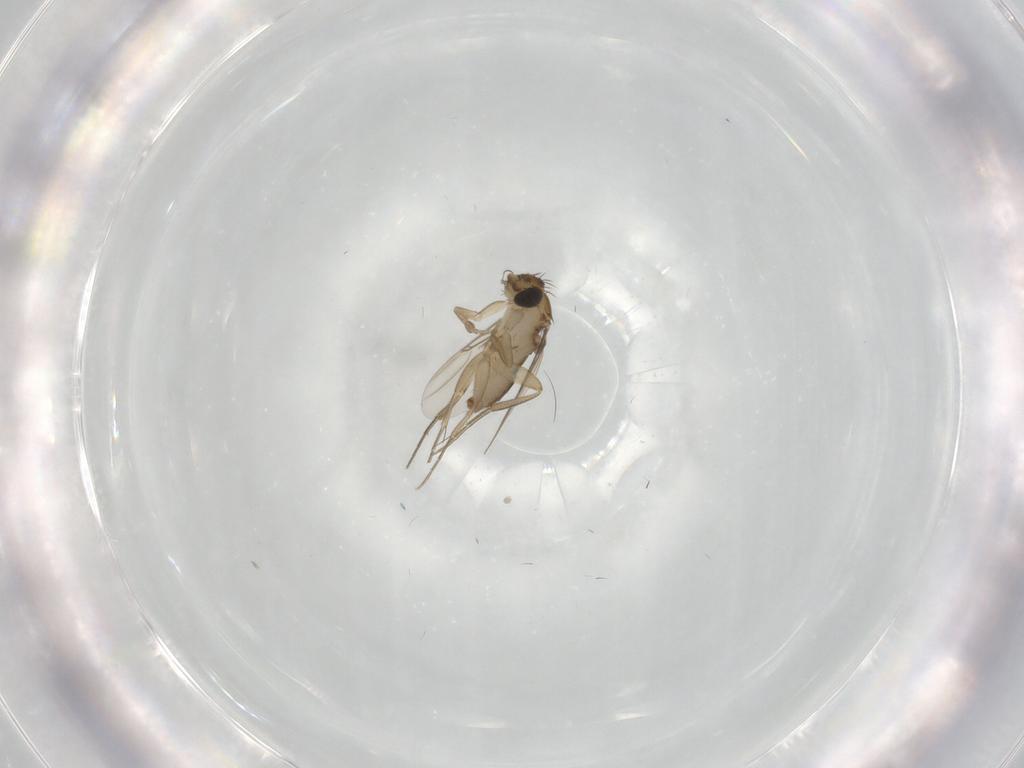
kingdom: Animalia
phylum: Arthropoda
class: Insecta
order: Diptera
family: Phoridae
